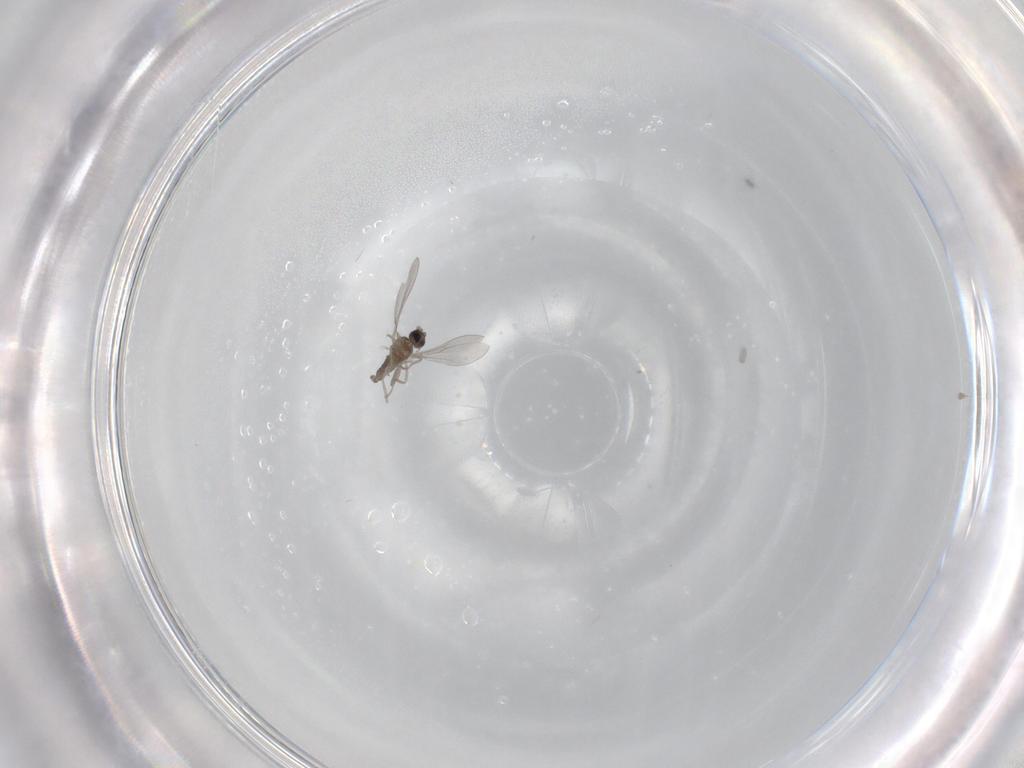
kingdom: Animalia
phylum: Arthropoda
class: Insecta
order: Diptera
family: Cecidomyiidae
